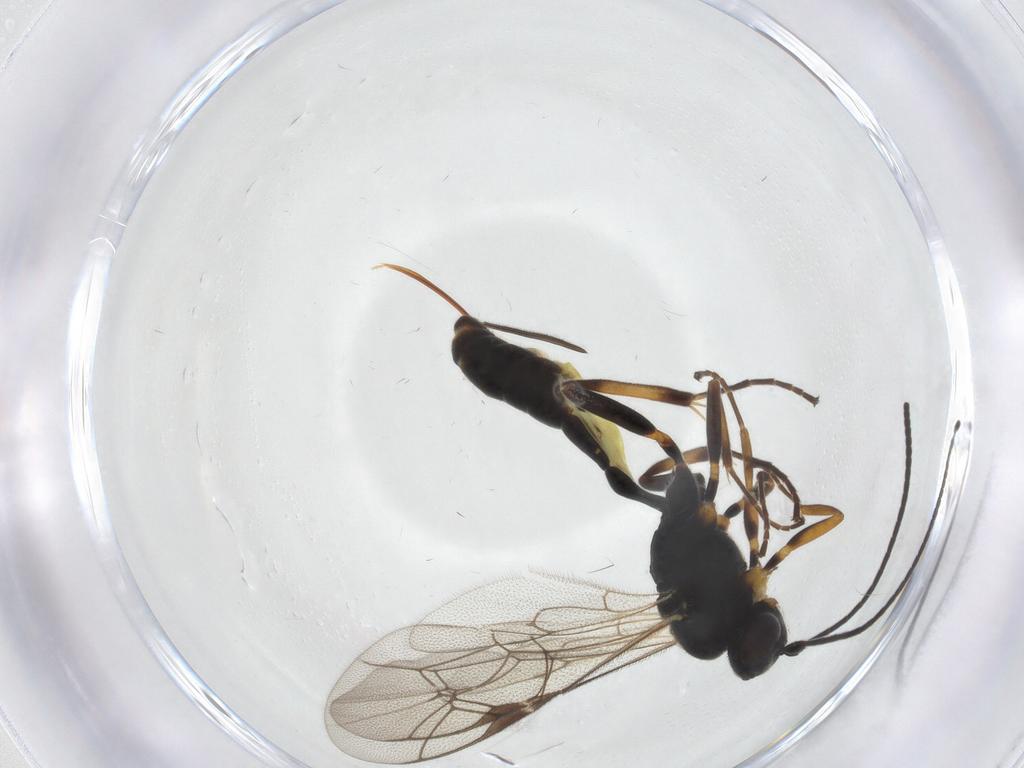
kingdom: Animalia
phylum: Arthropoda
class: Insecta
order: Hymenoptera
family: Ichneumonidae
